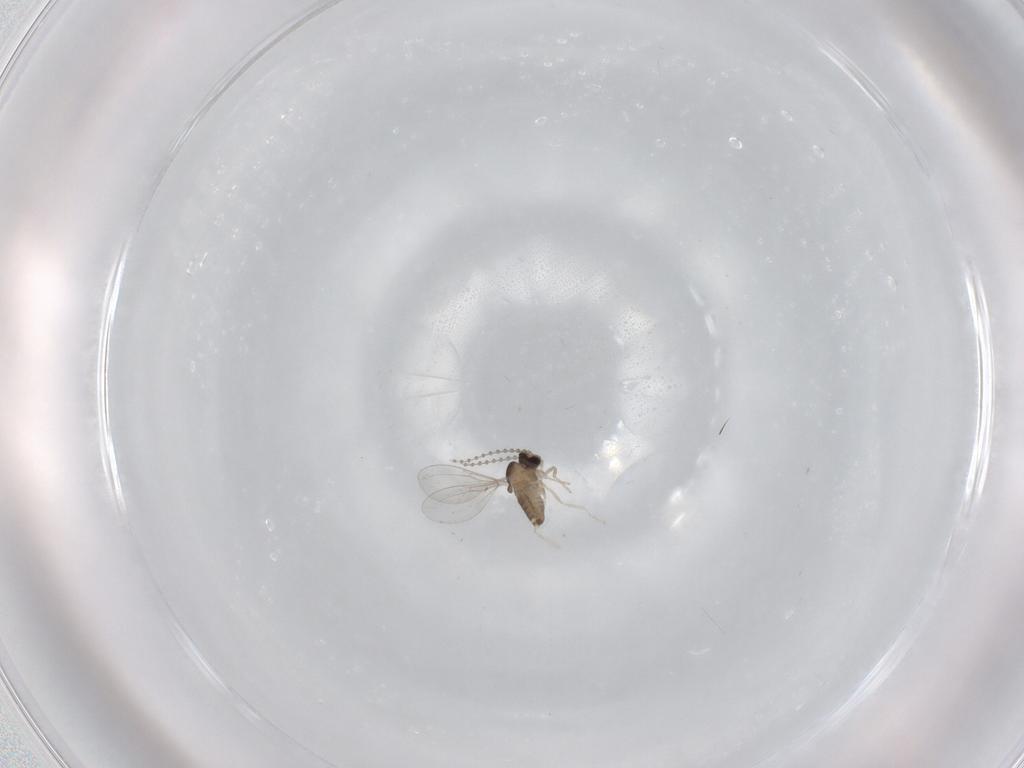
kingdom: Animalia
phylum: Arthropoda
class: Insecta
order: Diptera
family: Cecidomyiidae
